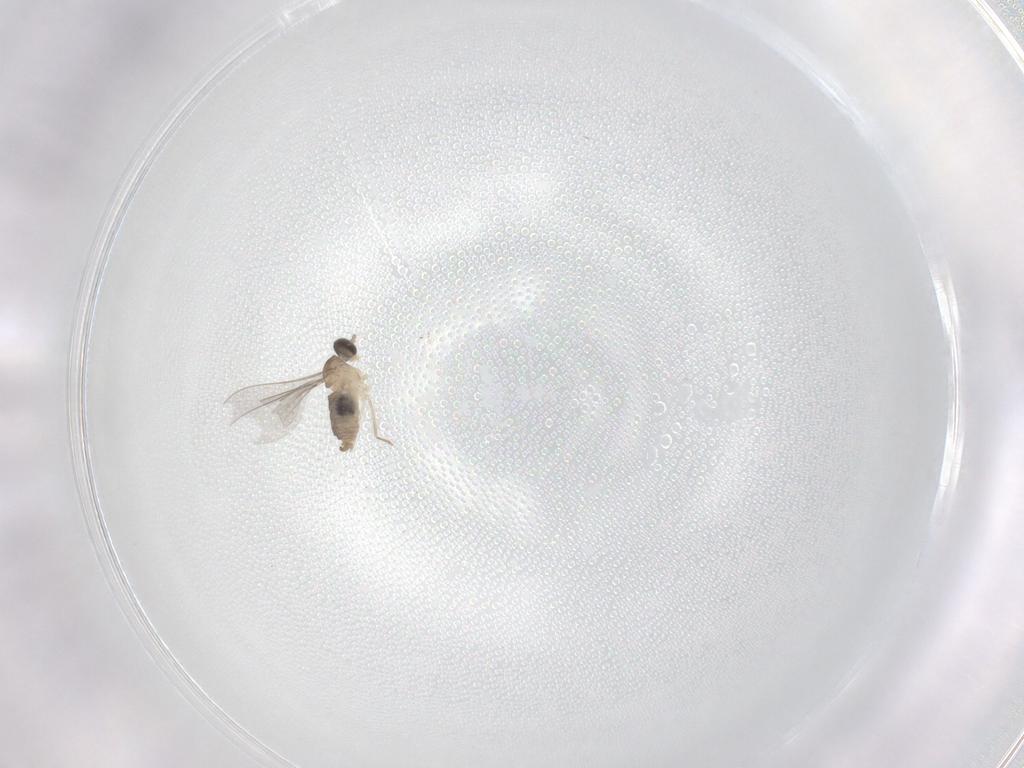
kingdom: Animalia
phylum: Arthropoda
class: Insecta
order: Diptera
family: Cecidomyiidae
